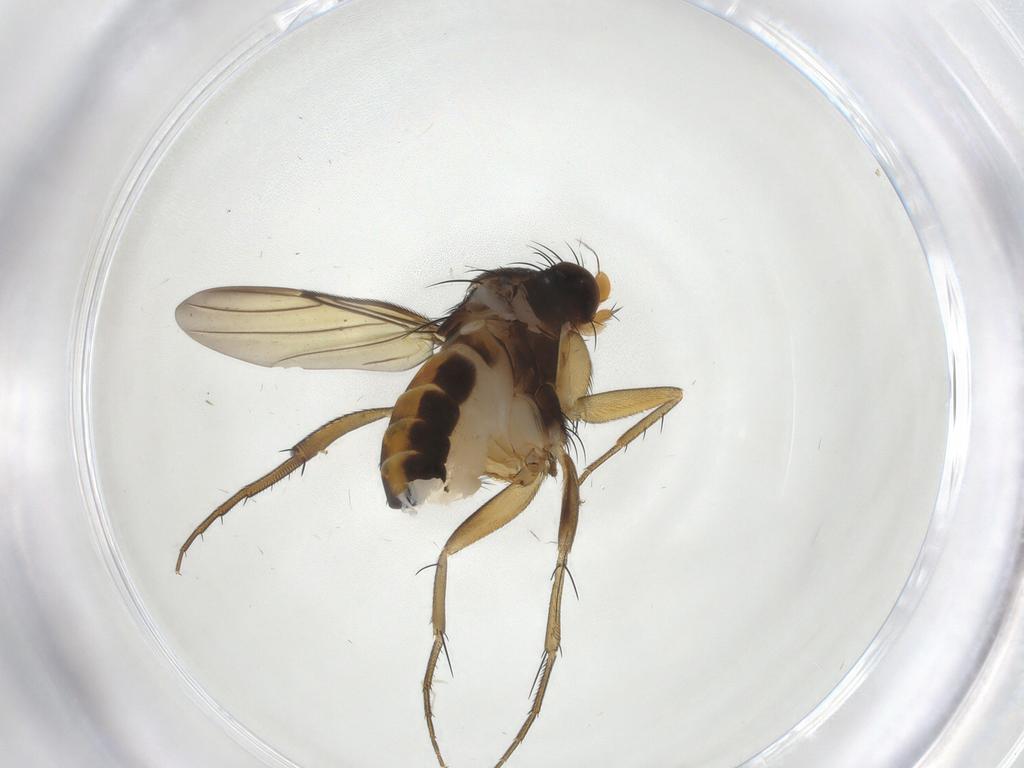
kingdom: Animalia
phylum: Arthropoda
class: Insecta
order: Diptera
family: Phoridae
